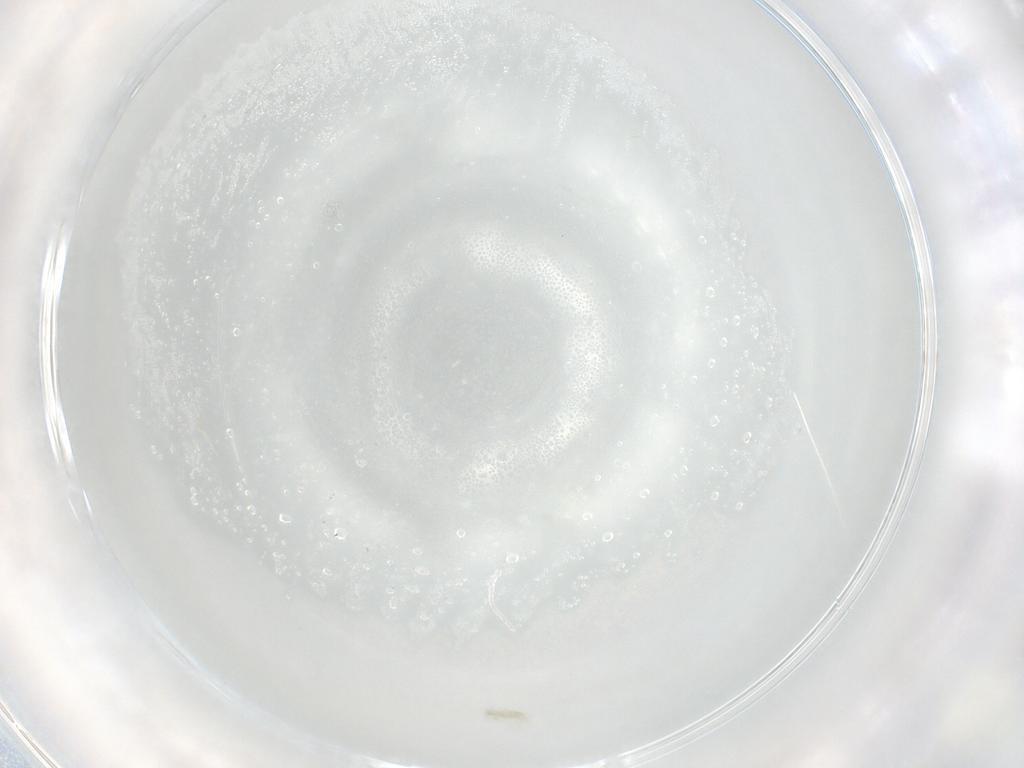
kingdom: Animalia
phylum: Arthropoda
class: Arachnida
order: Trombidiformes
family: Eupodidae
